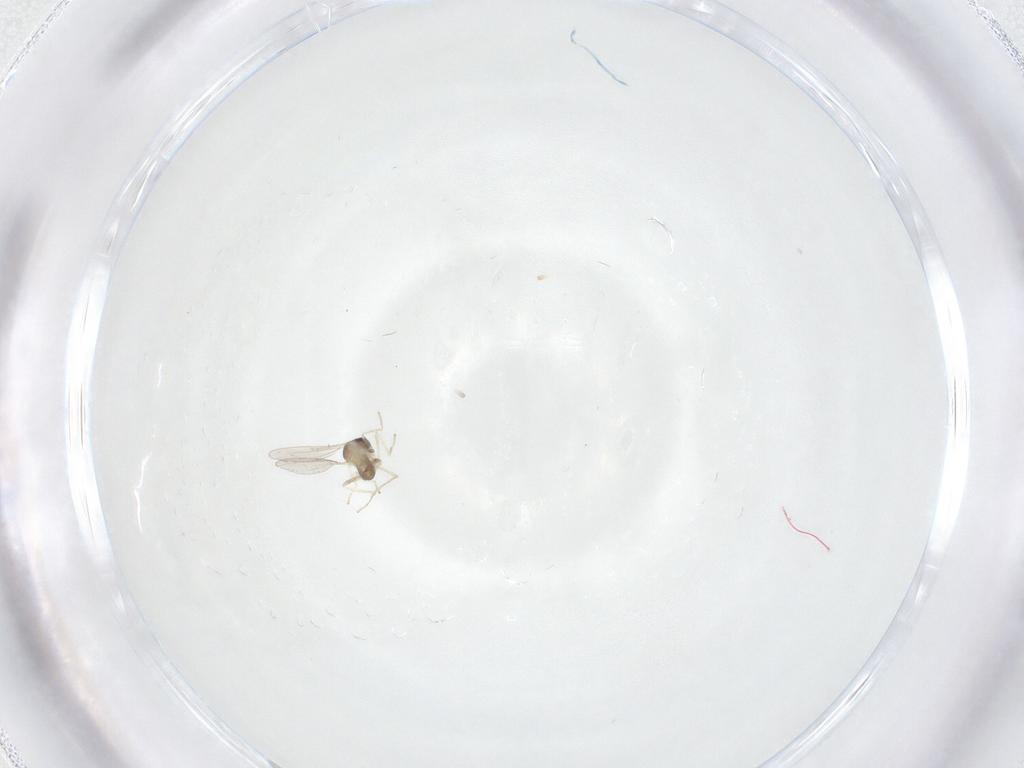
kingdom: Animalia
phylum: Arthropoda
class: Insecta
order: Diptera
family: Cecidomyiidae
